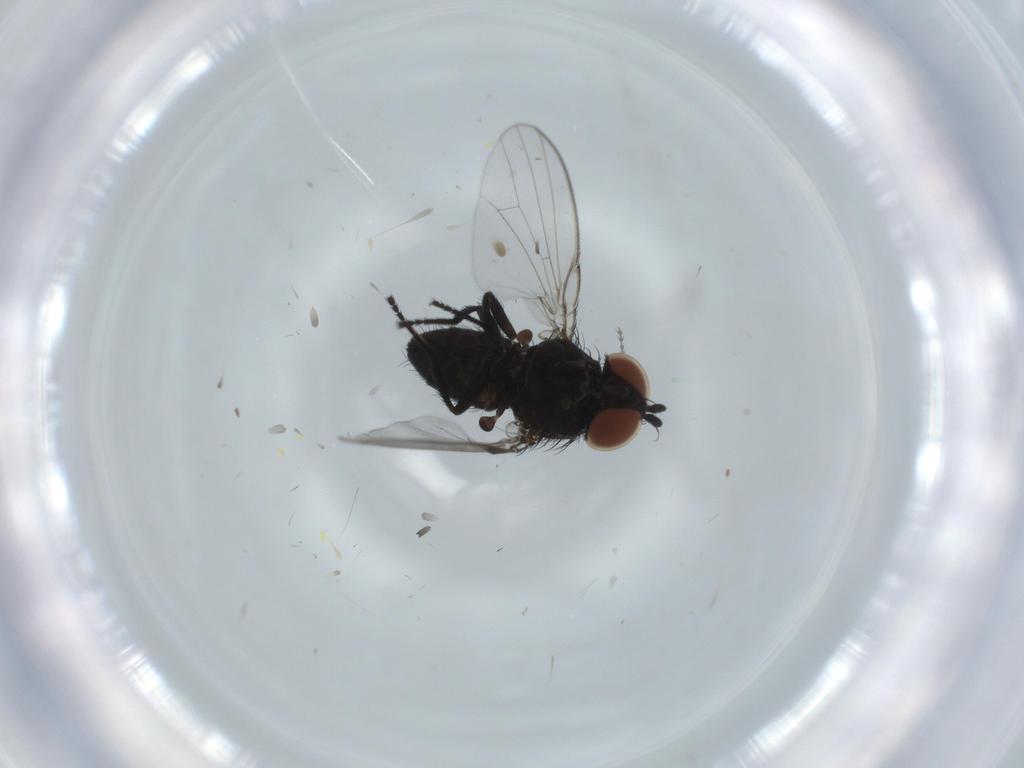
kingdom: Animalia
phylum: Arthropoda
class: Insecta
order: Diptera
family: Milichiidae
